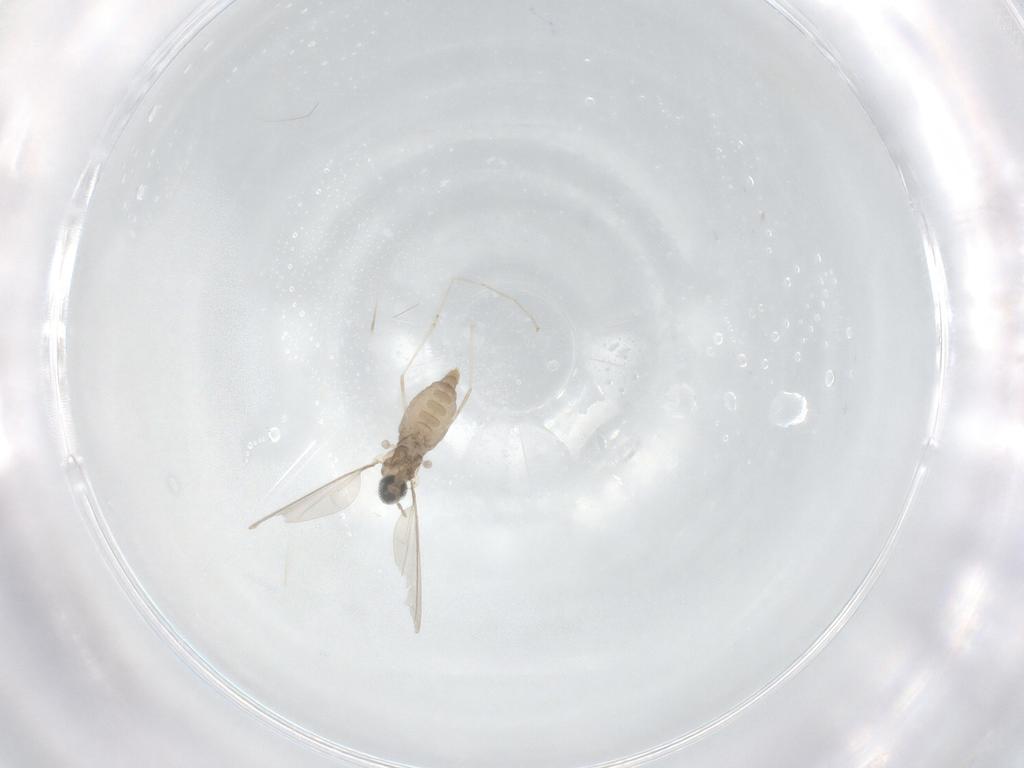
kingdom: Animalia
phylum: Arthropoda
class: Insecta
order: Diptera
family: Cecidomyiidae
